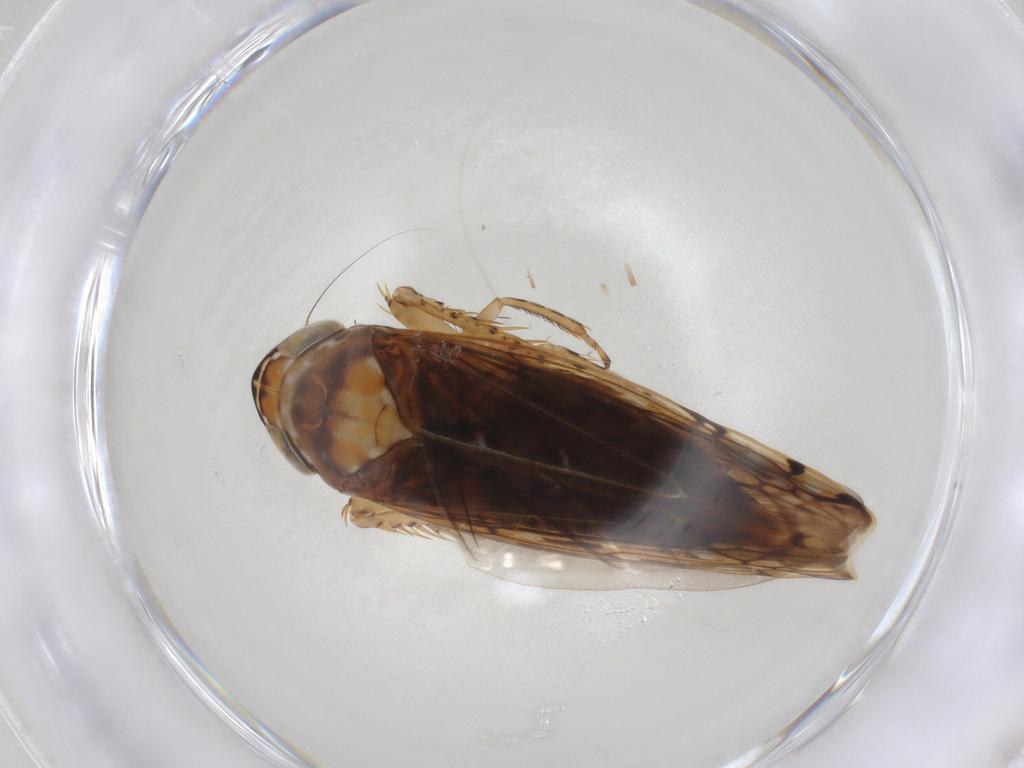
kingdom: Animalia
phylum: Arthropoda
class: Insecta
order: Hemiptera
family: Cicadellidae
